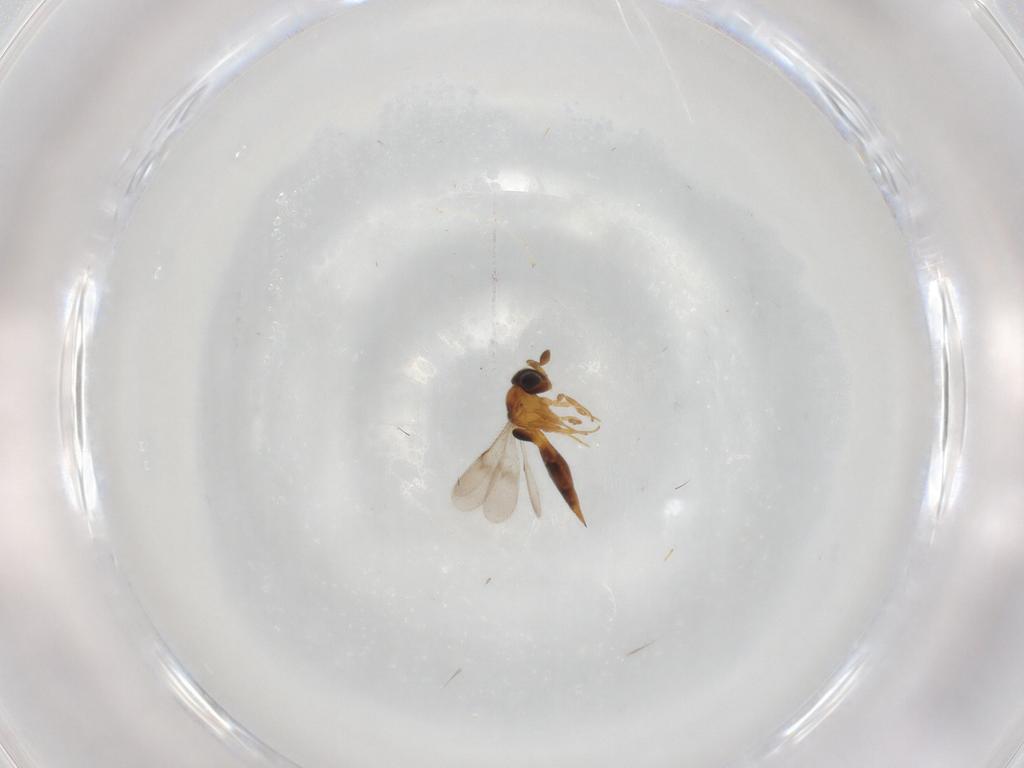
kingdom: Animalia
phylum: Arthropoda
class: Insecta
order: Hymenoptera
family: Scelionidae
